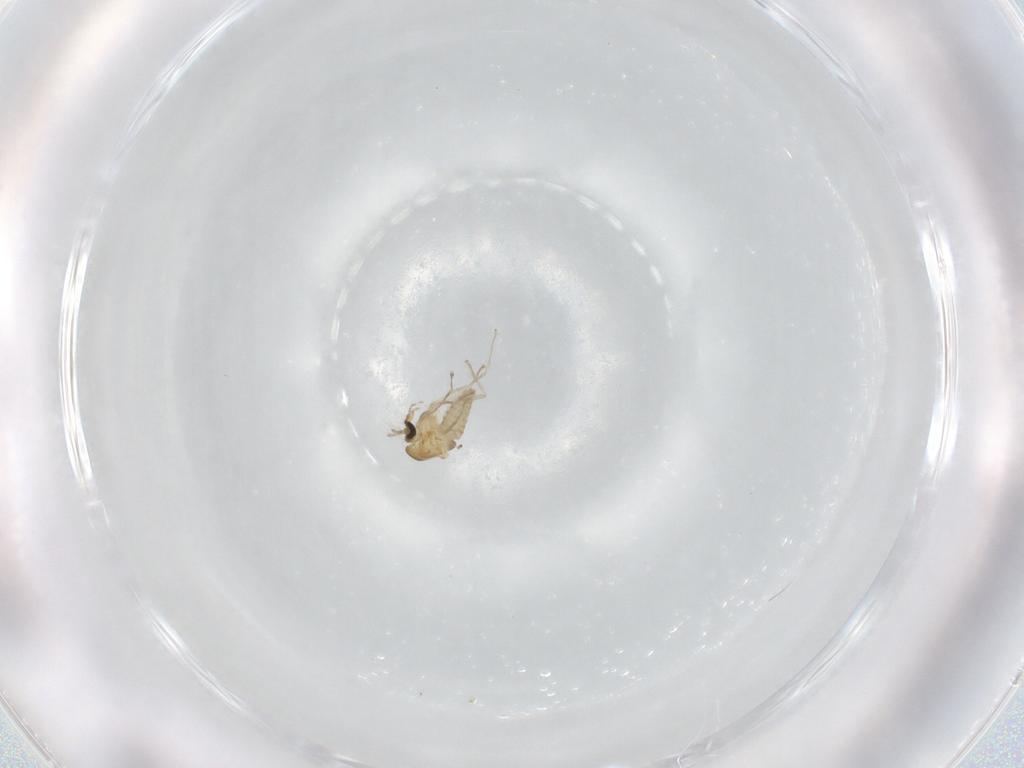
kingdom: Animalia
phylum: Arthropoda
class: Insecta
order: Diptera
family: Chironomidae
